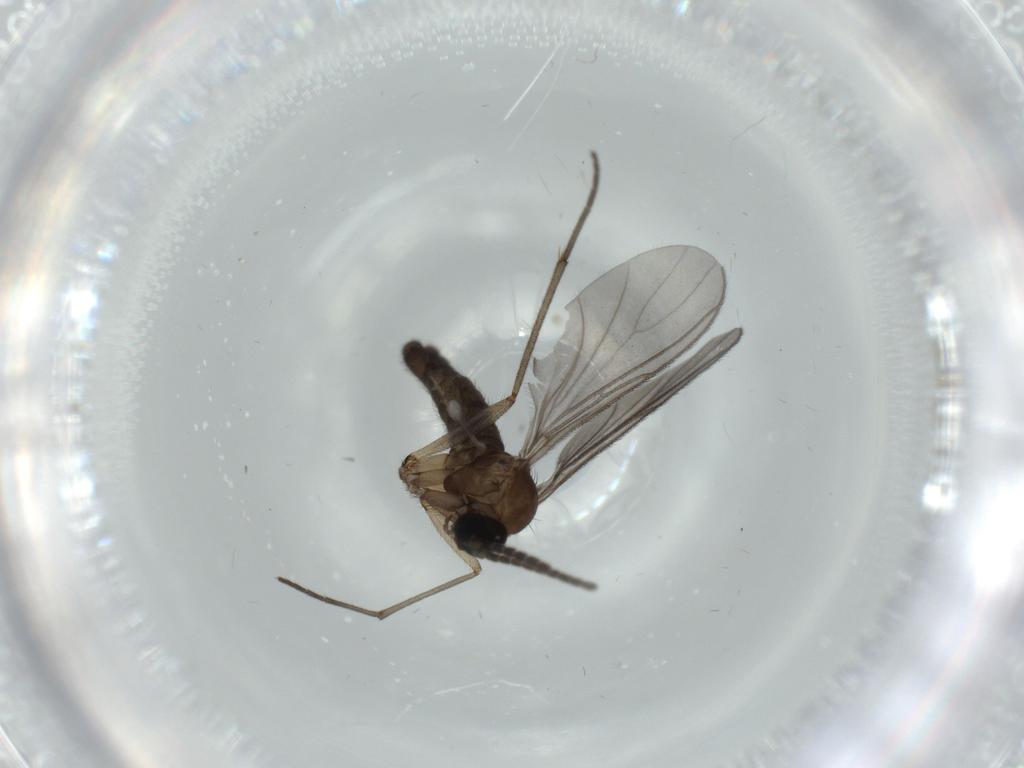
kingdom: Animalia
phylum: Arthropoda
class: Insecta
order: Diptera
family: Sciaridae
